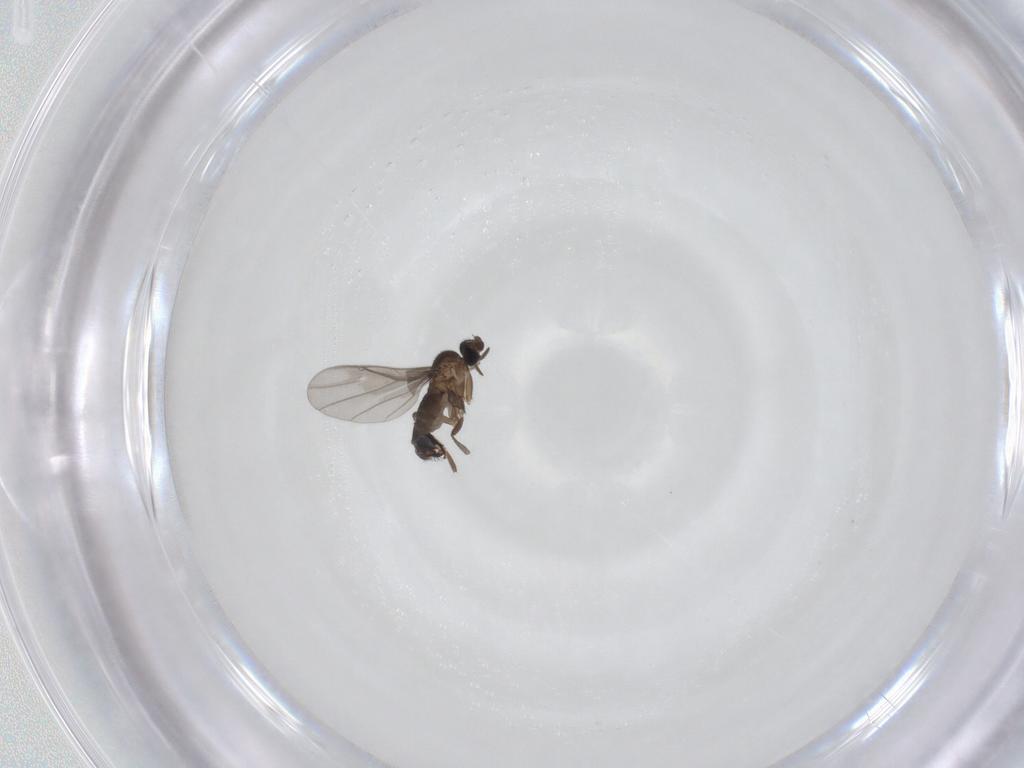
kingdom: Animalia
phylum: Arthropoda
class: Insecta
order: Diptera
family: Phoridae
